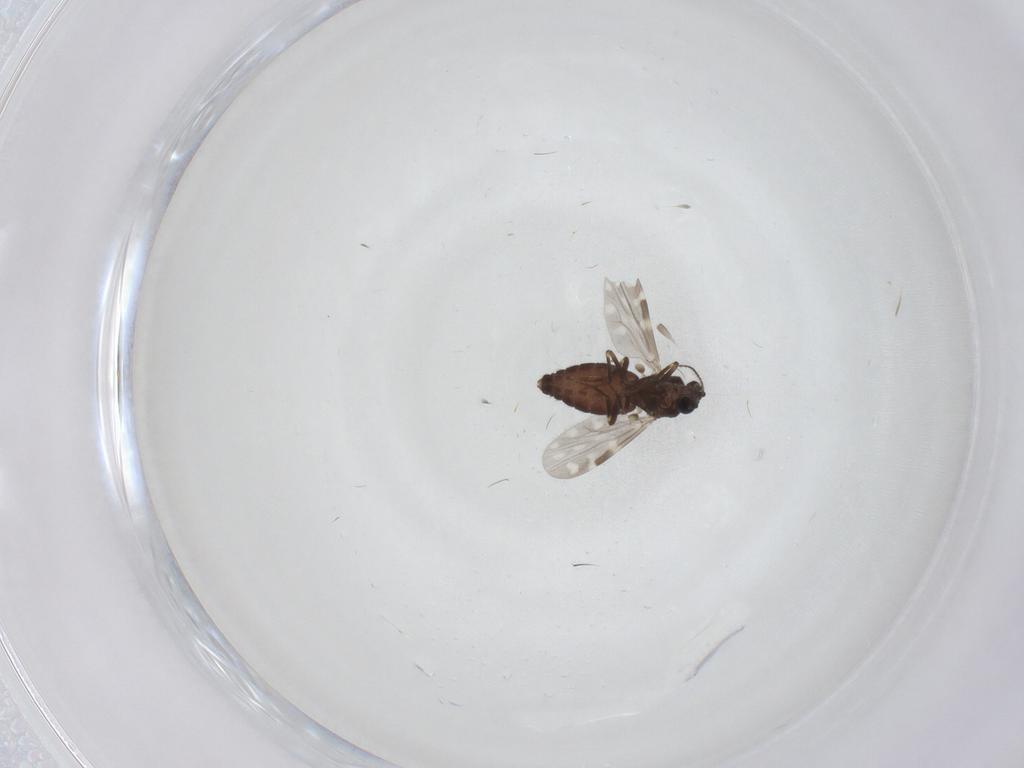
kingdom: Animalia
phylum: Arthropoda
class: Insecta
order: Diptera
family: Ceratopogonidae
